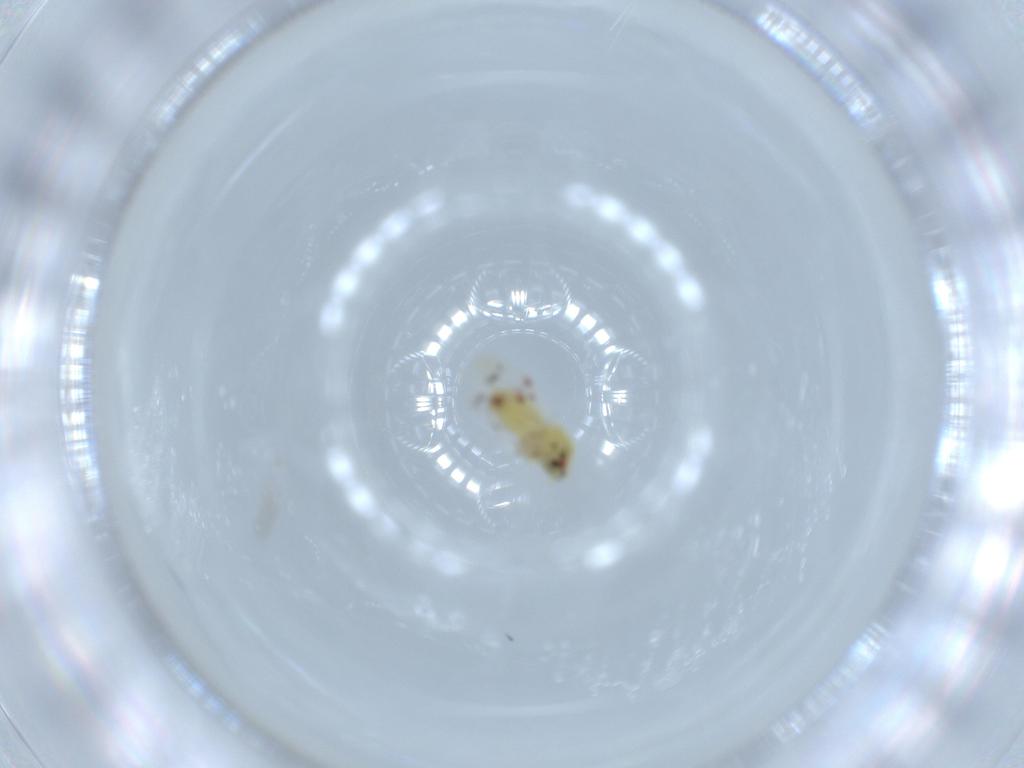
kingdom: Animalia
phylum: Arthropoda
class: Insecta
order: Hemiptera
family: Aleyrodidae
